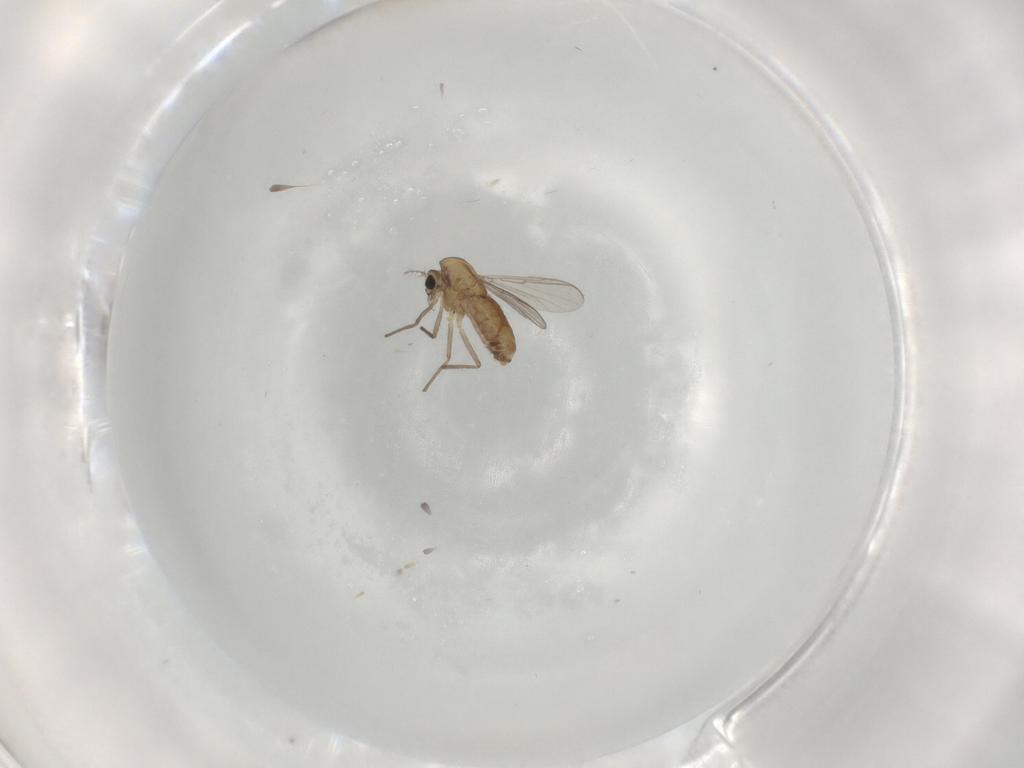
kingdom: Animalia
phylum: Arthropoda
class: Insecta
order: Diptera
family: Chironomidae
